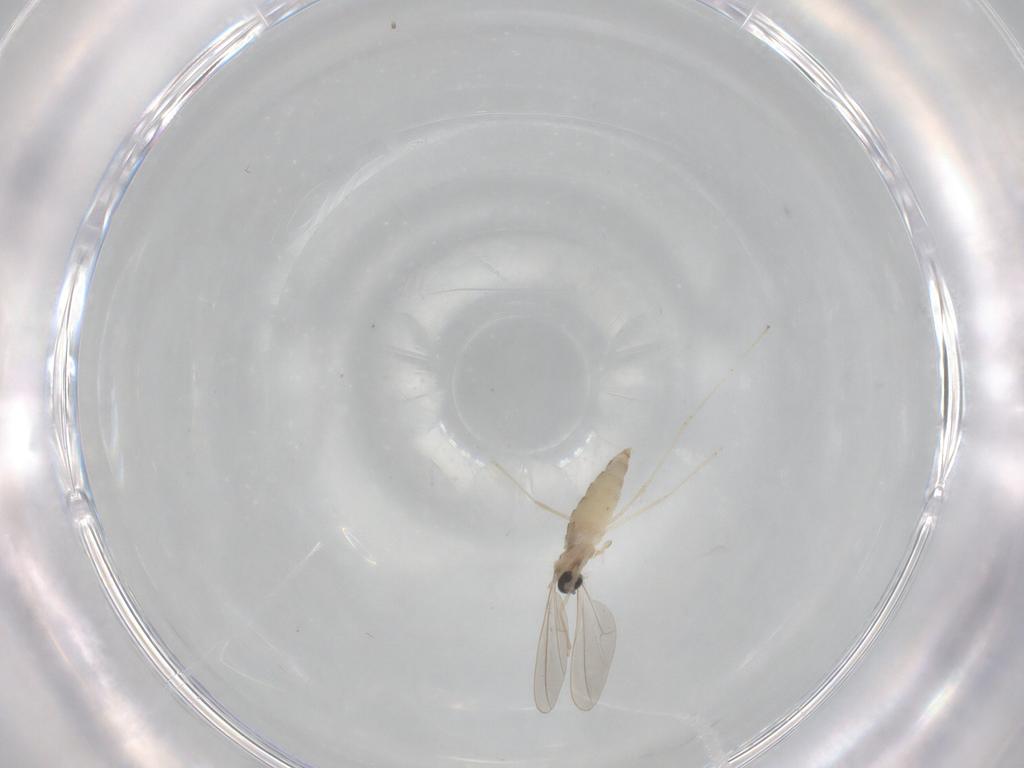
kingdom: Animalia
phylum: Arthropoda
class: Insecta
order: Diptera
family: Cecidomyiidae
